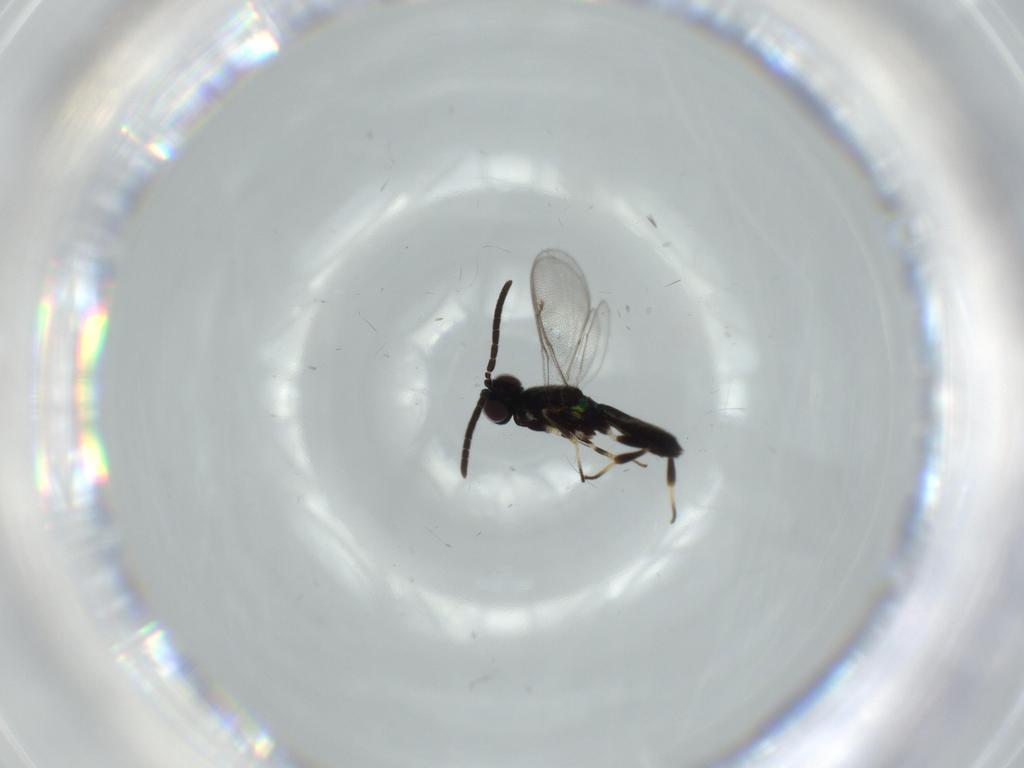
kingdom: Animalia
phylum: Arthropoda
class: Insecta
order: Hymenoptera
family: Eupelmidae
